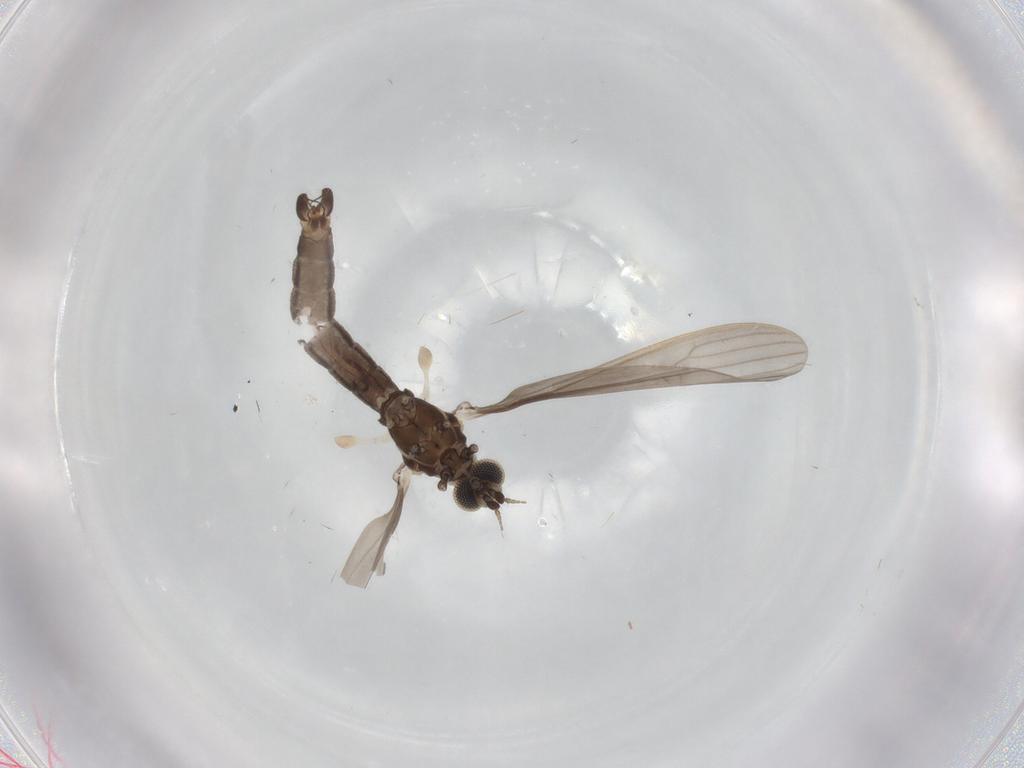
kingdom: Animalia
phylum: Arthropoda
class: Insecta
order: Diptera
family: Limoniidae
